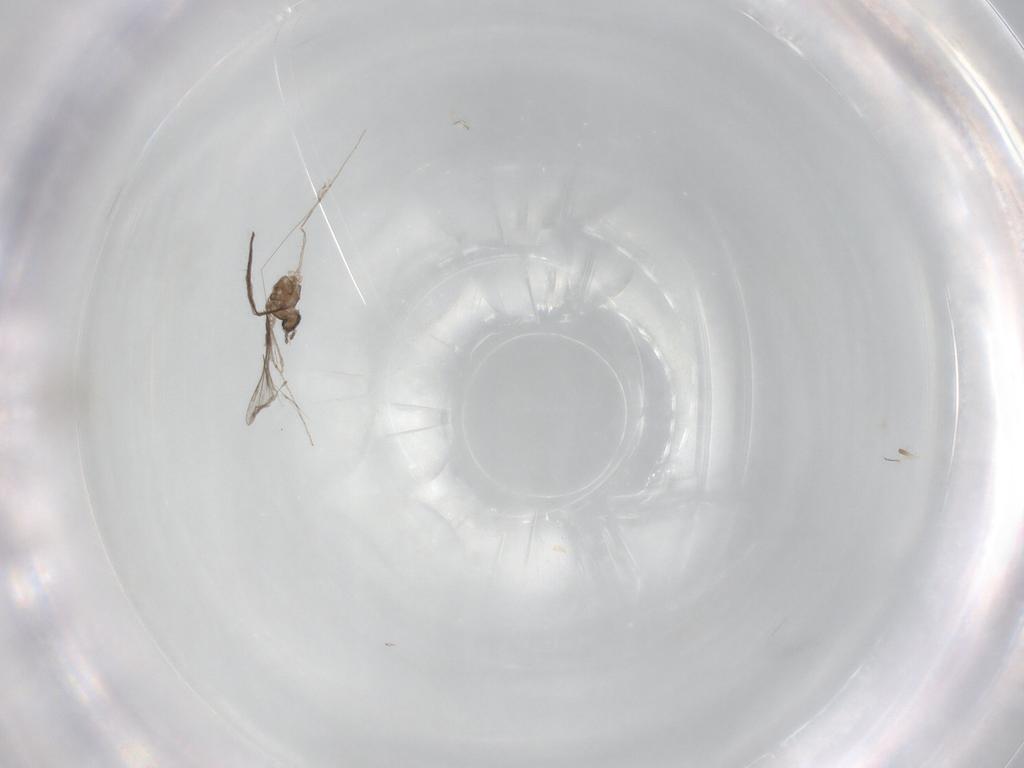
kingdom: Animalia
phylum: Arthropoda
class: Insecta
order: Diptera
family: Cecidomyiidae
